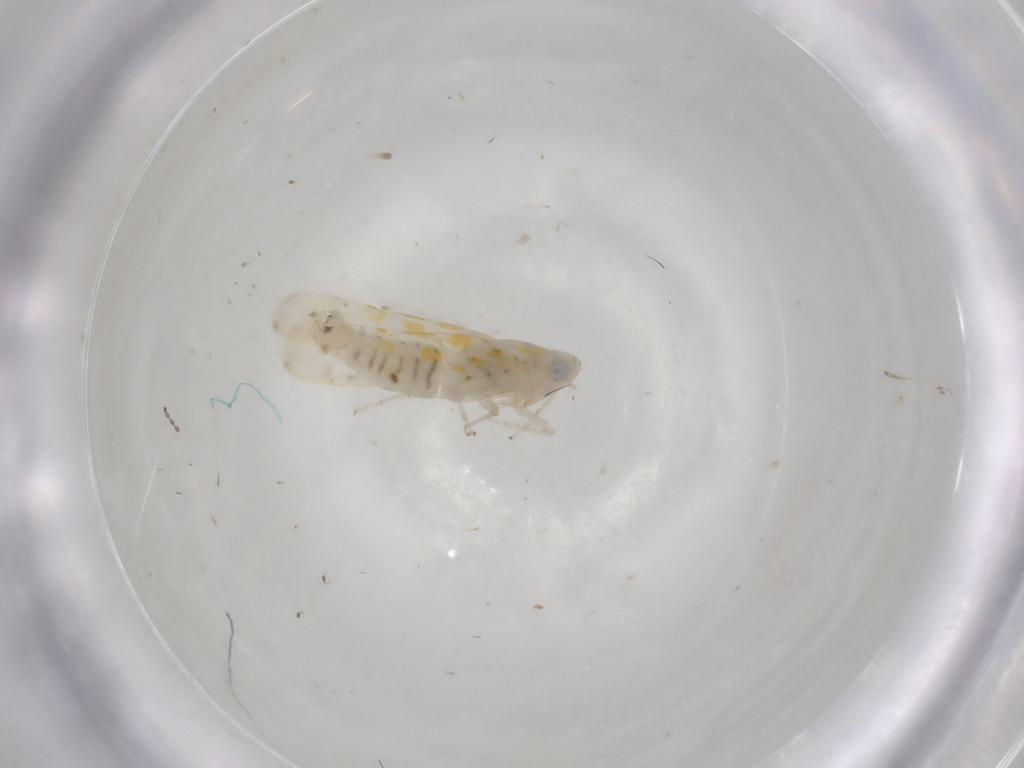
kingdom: Animalia
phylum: Arthropoda
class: Insecta
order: Hemiptera
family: Cicadellidae
